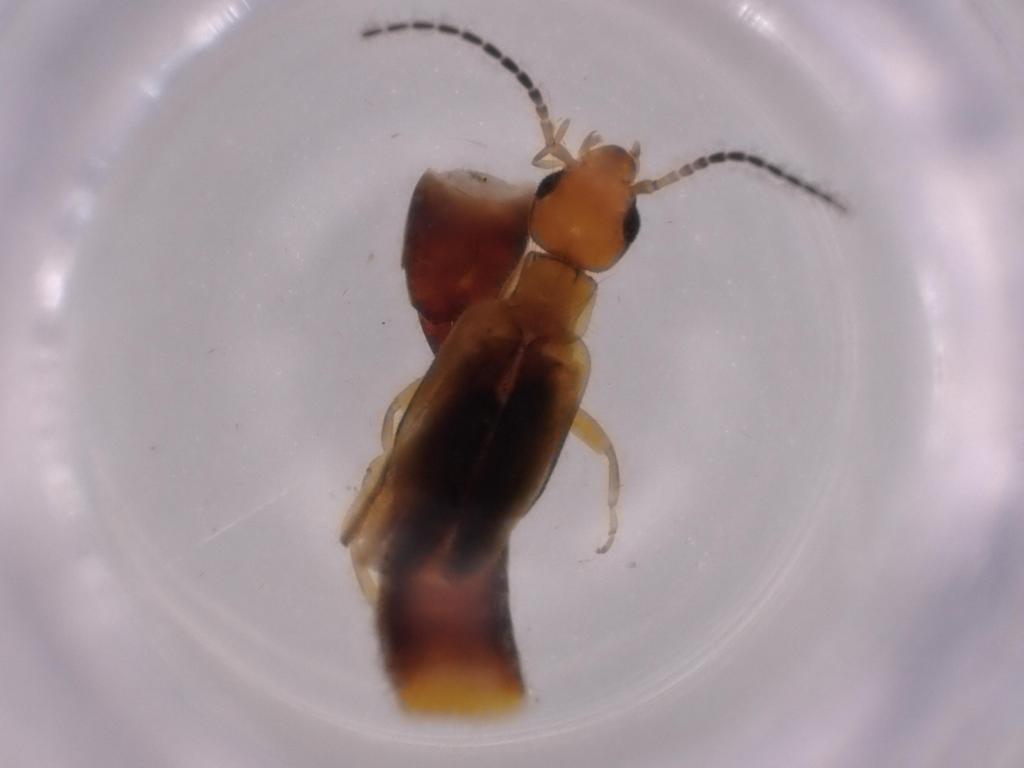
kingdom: Animalia
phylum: Arthropoda
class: Insecta
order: Dermaptera
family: Forficulidae
